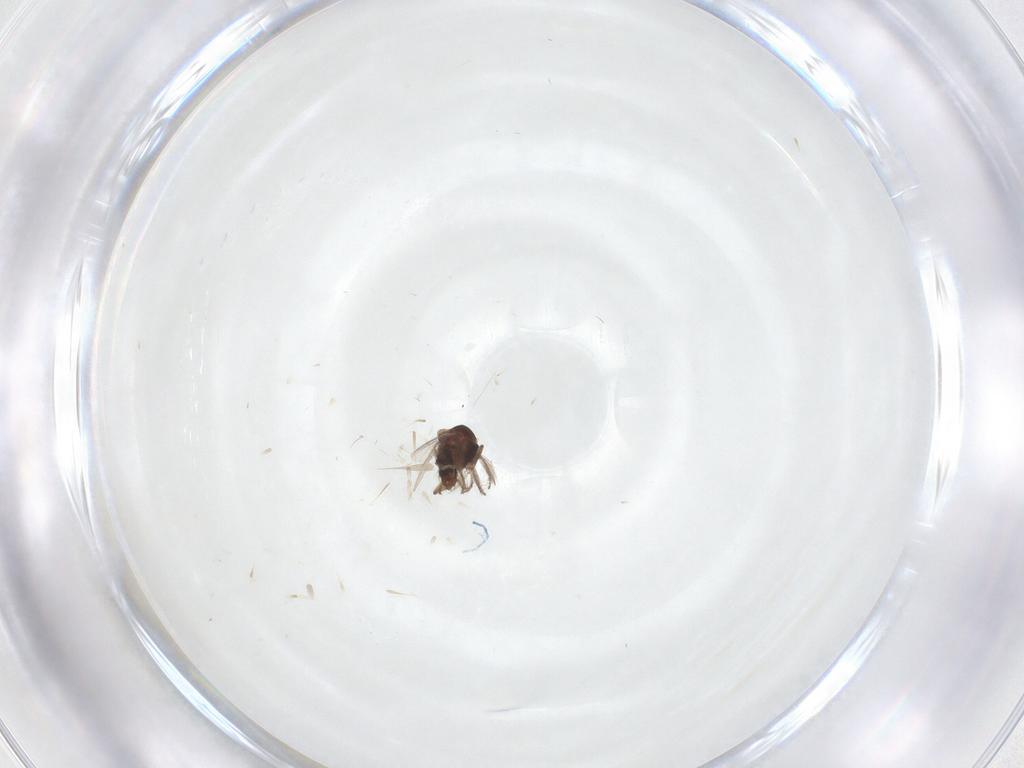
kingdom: Animalia
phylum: Arthropoda
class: Insecta
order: Diptera
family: Ceratopogonidae
